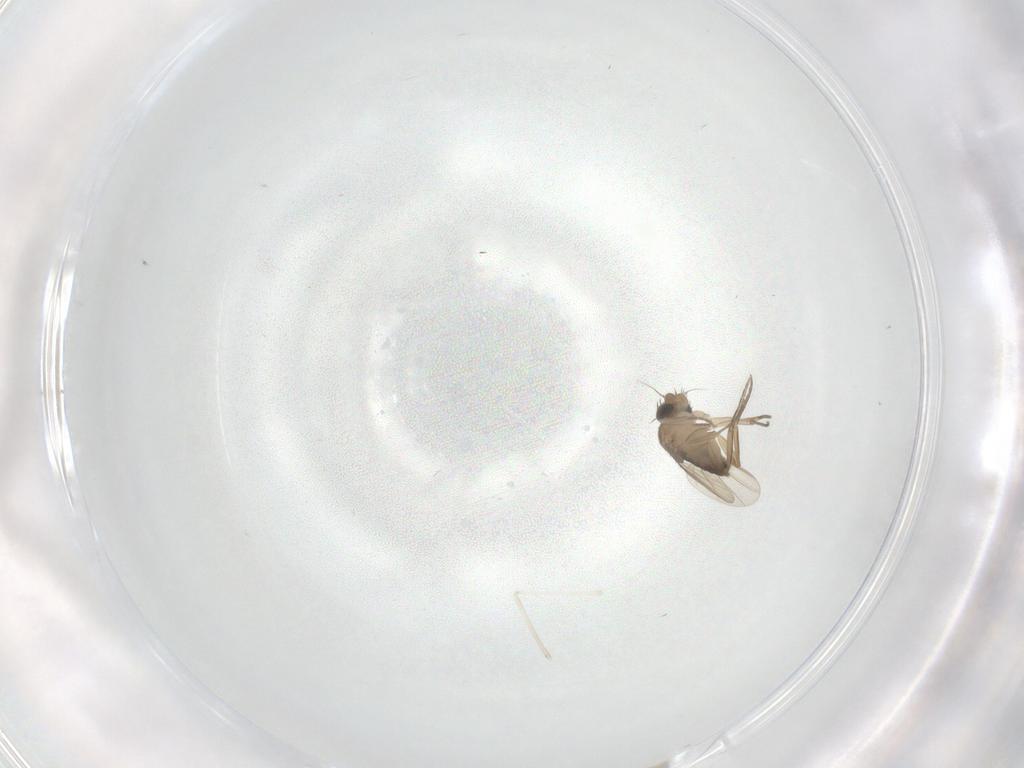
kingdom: Animalia
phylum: Arthropoda
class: Insecta
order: Diptera
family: Cecidomyiidae
